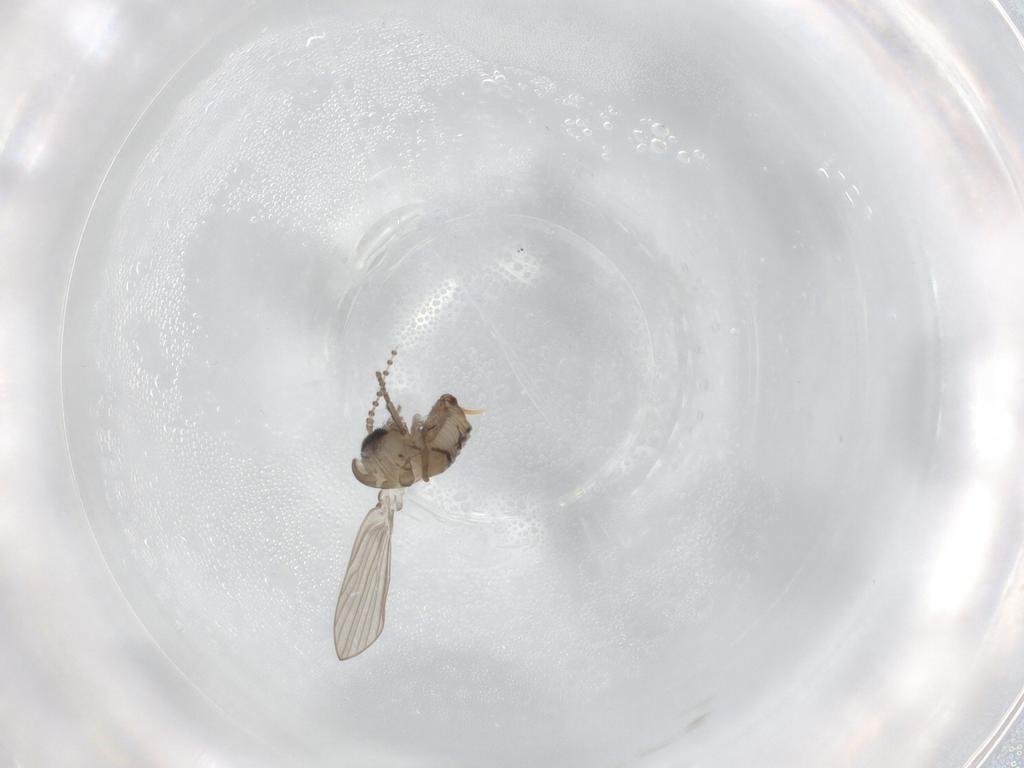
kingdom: Animalia
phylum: Arthropoda
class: Insecta
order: Diptera
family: Psychodidae
